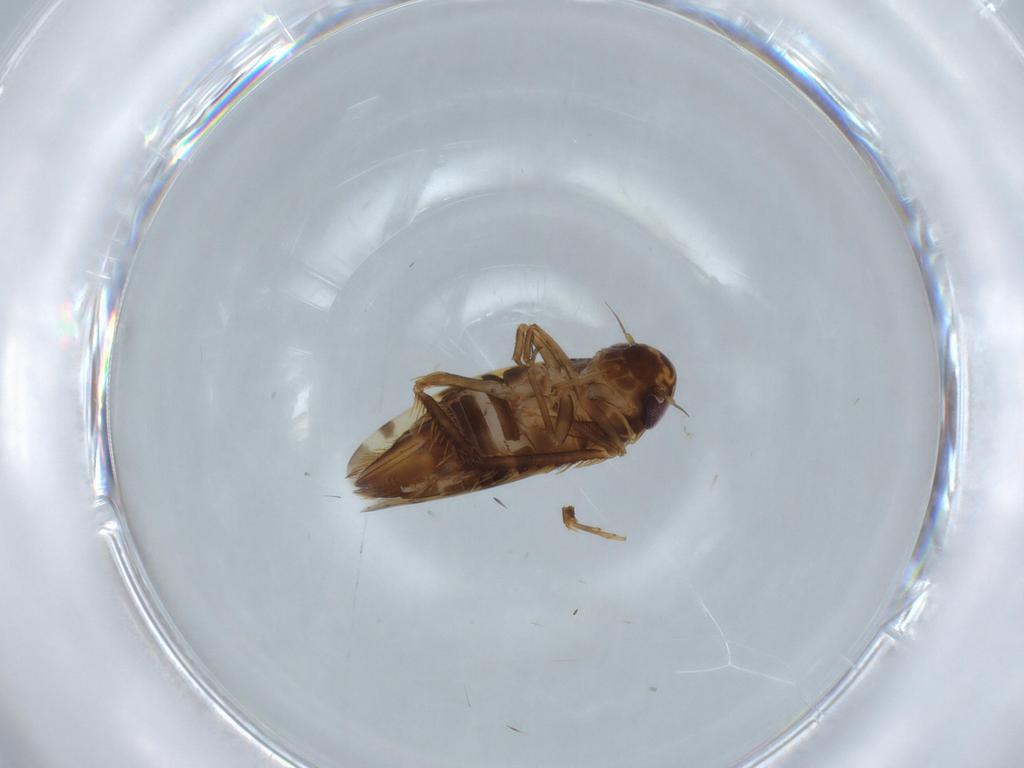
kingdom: Animalia
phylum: Arthropoda
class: Insecta
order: Hemiptera
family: Cicadellidae
